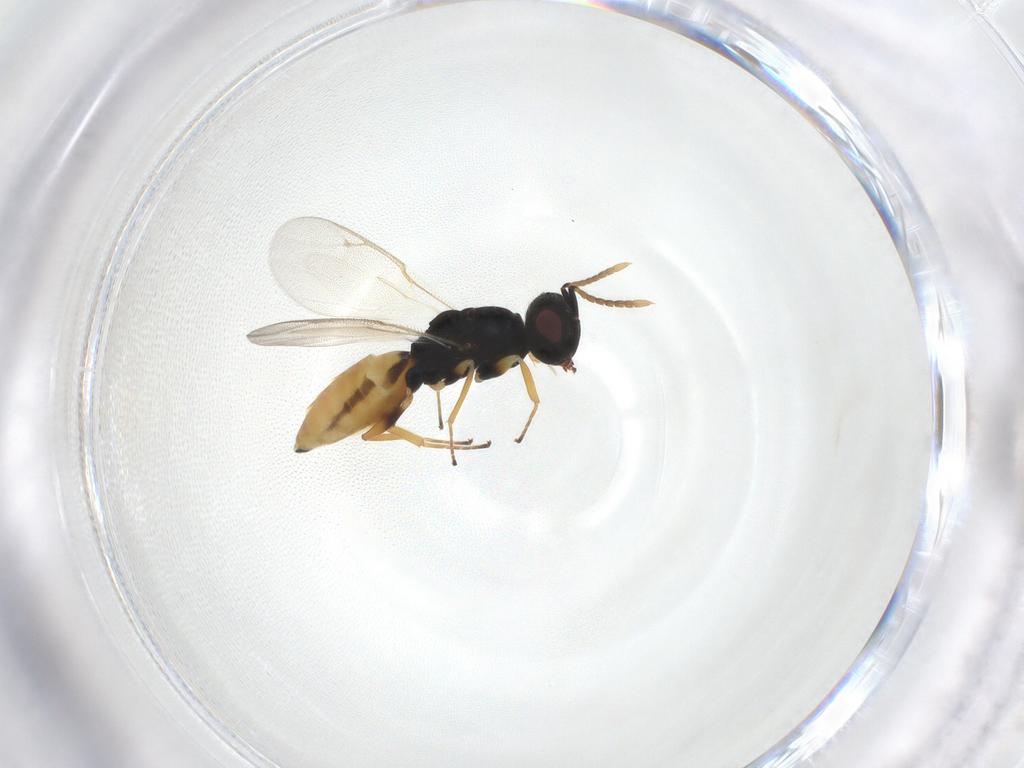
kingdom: Animalia
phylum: Arthropoda
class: Insecta
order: Hymenoptera
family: Pteromalidae
